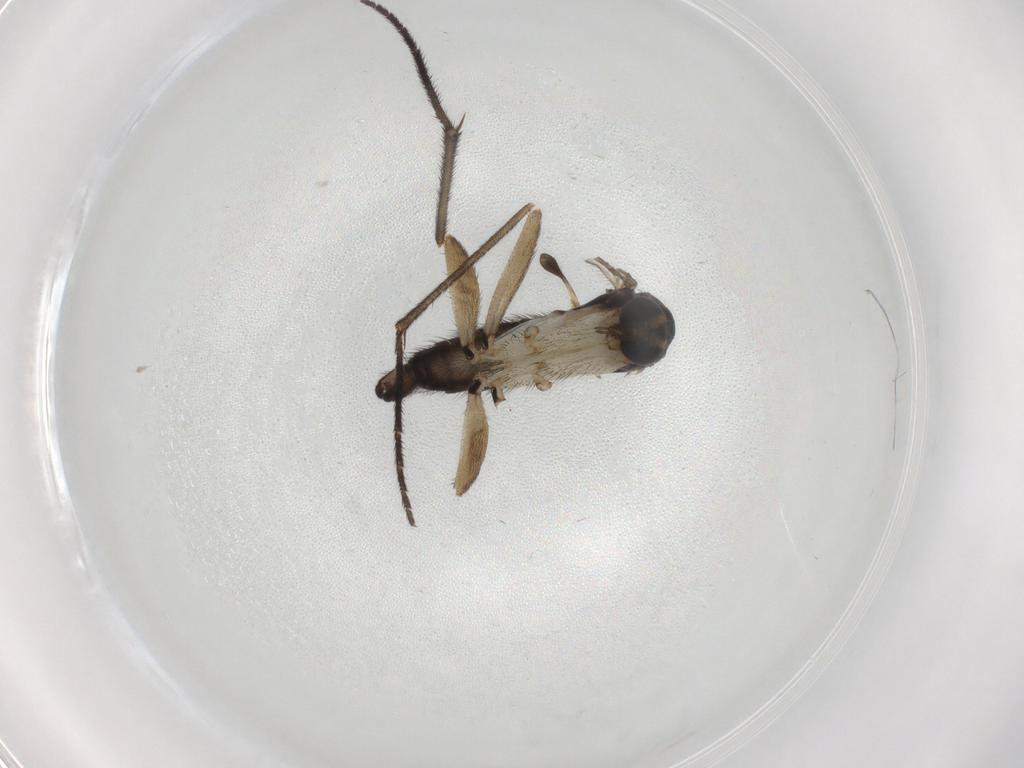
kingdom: Animalia
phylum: Arthropoda
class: Insecta
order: Diptera
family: Sciaridae
